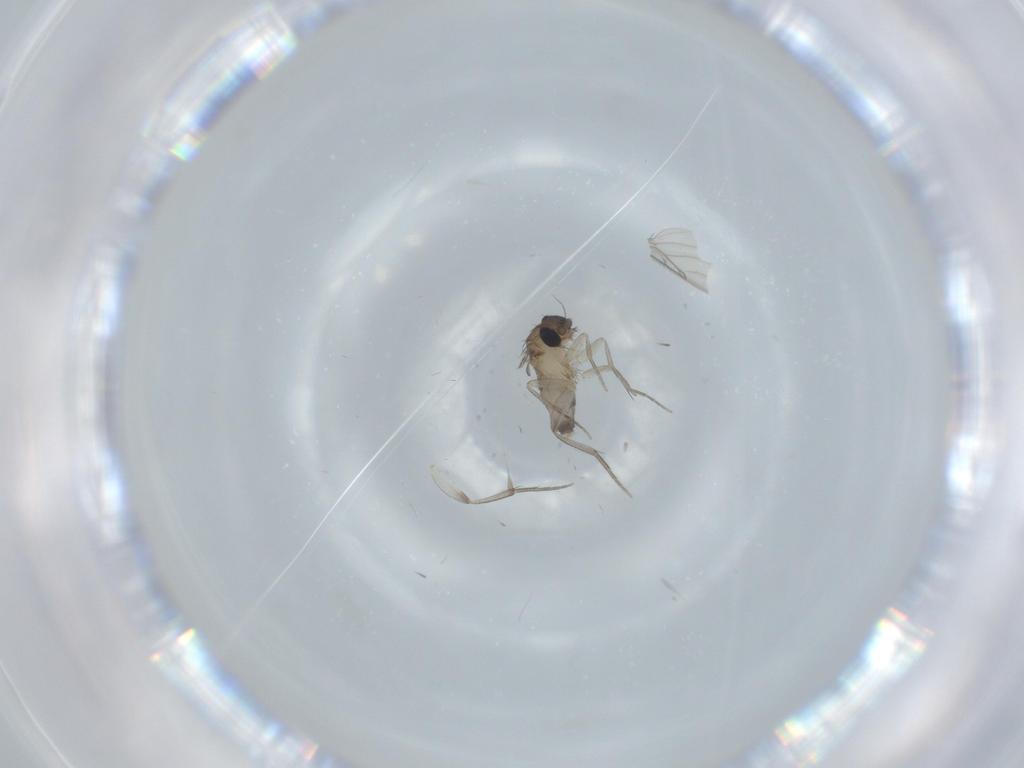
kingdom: Animalia
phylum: Arthropoda
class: Insecta
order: Diptera
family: Phoridae
